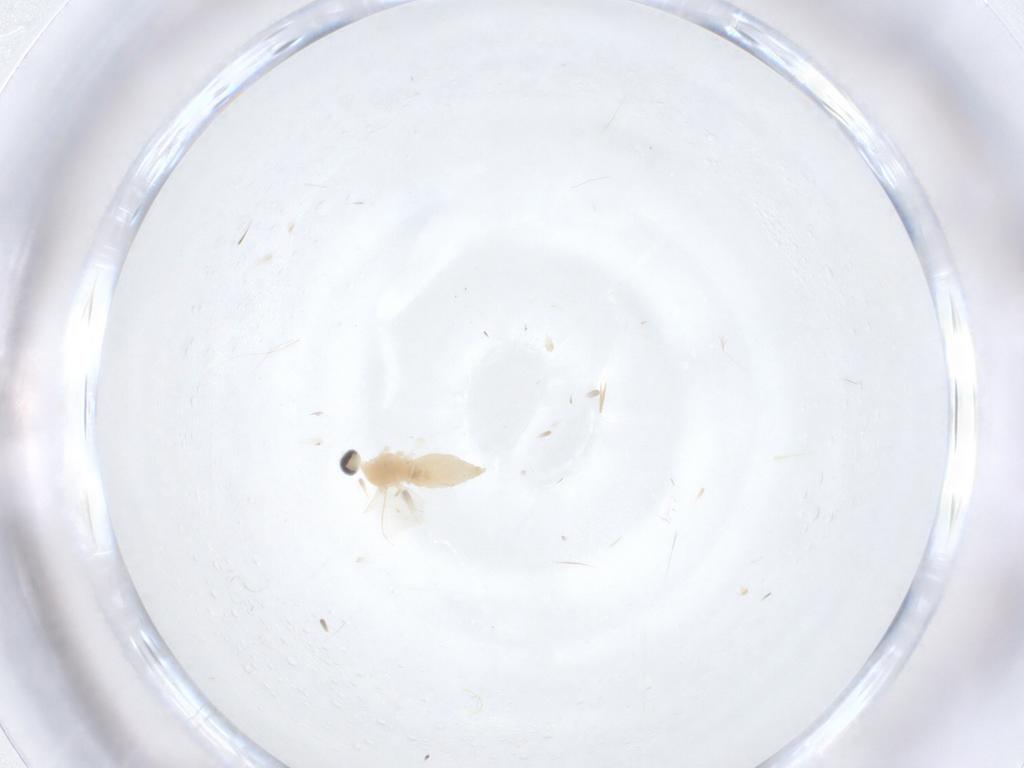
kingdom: Animalia
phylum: Arthropoda
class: Insecta
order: Diptera
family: Cecidomyiidae
